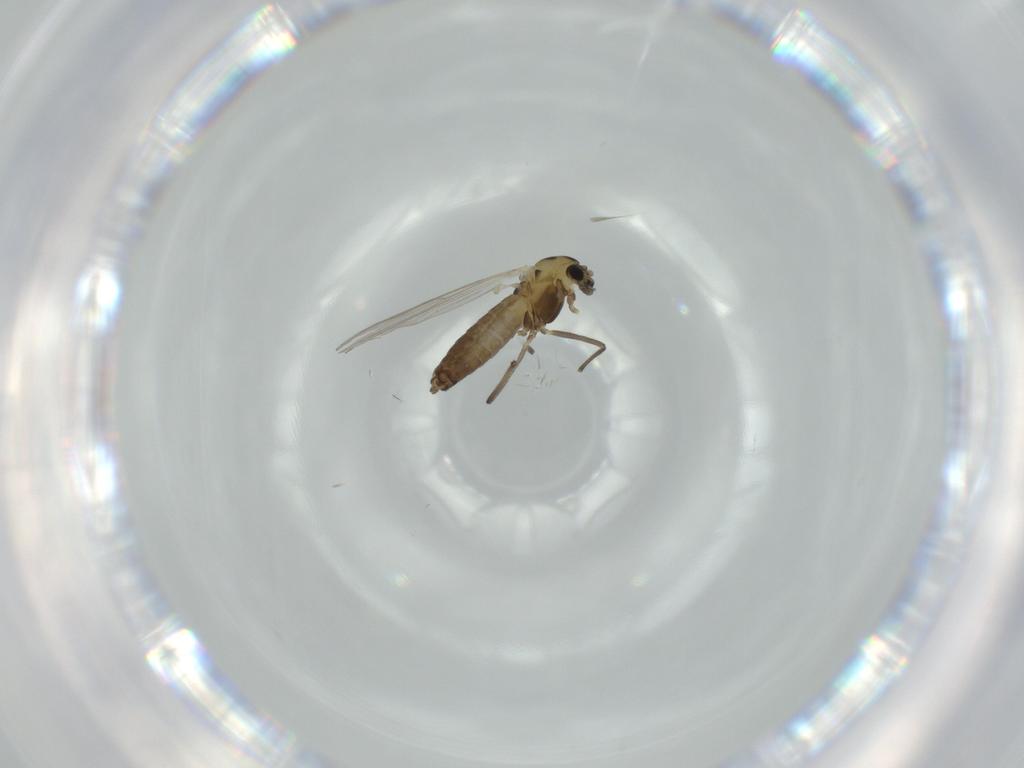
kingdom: Animalia
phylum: Arthropoda
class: Insecta
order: Diptera
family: Chironomidae
